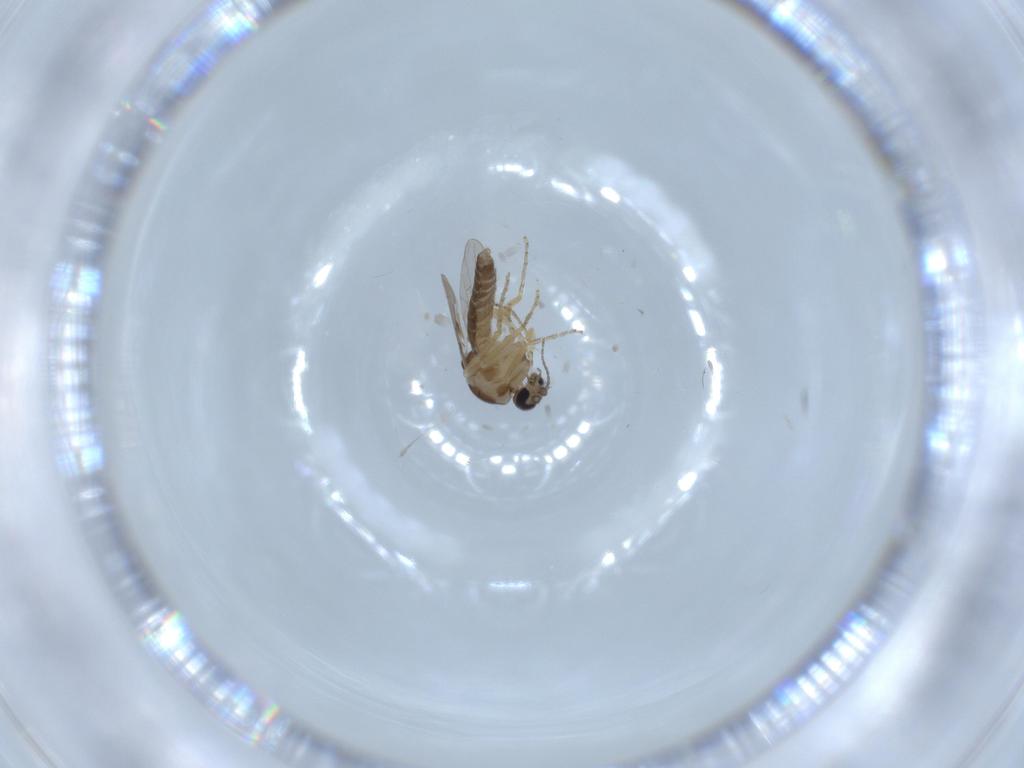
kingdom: Animalia
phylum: Arthropoda
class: Insecta
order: Diptera
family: Ceratopogonidae
